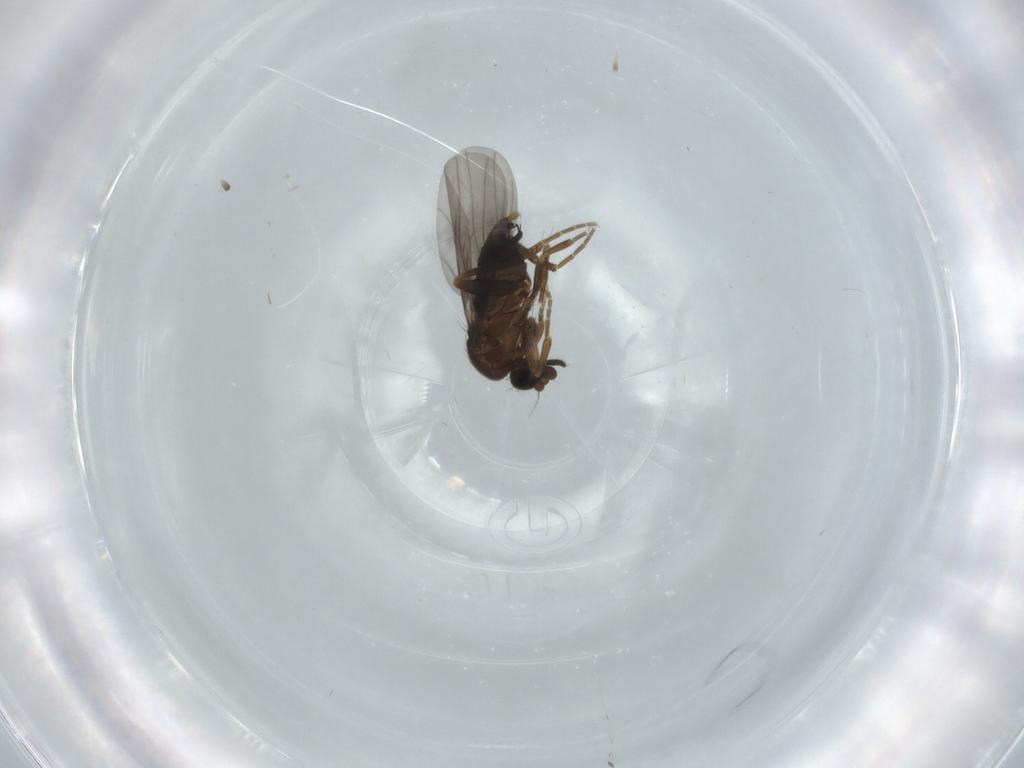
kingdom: Animalia
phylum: Arthropoda
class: Insecta
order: Diptera
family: Phoridae
